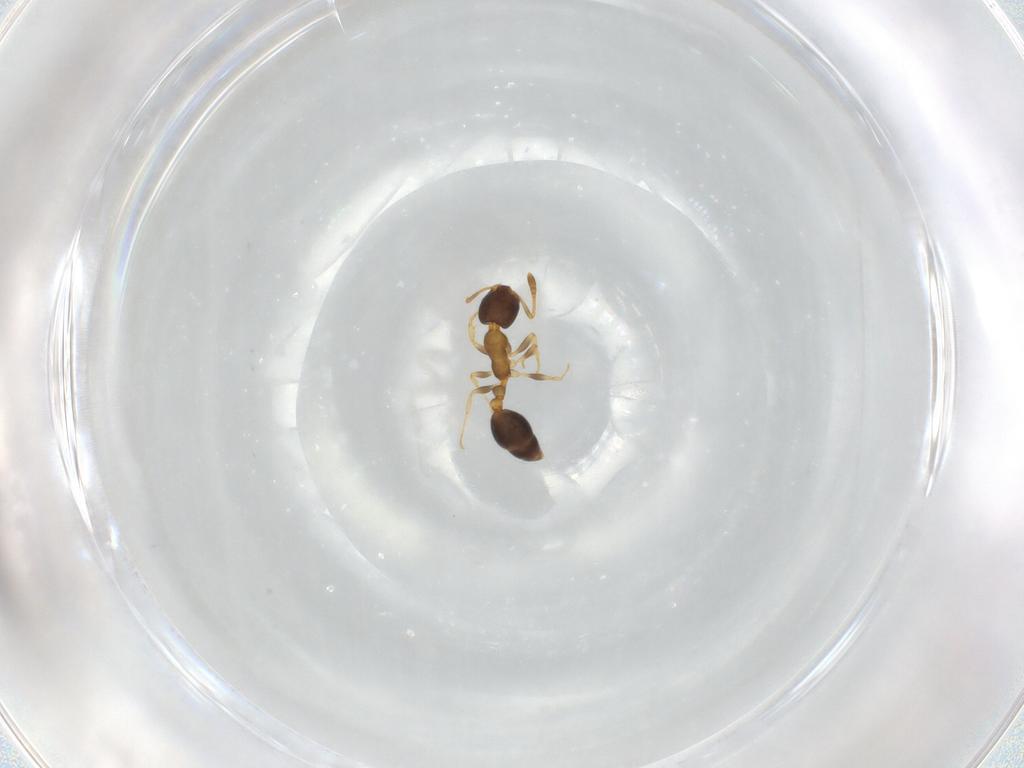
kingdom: Animalia
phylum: Arthropoda
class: Insecta
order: Hymenoptera
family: Formicidae
